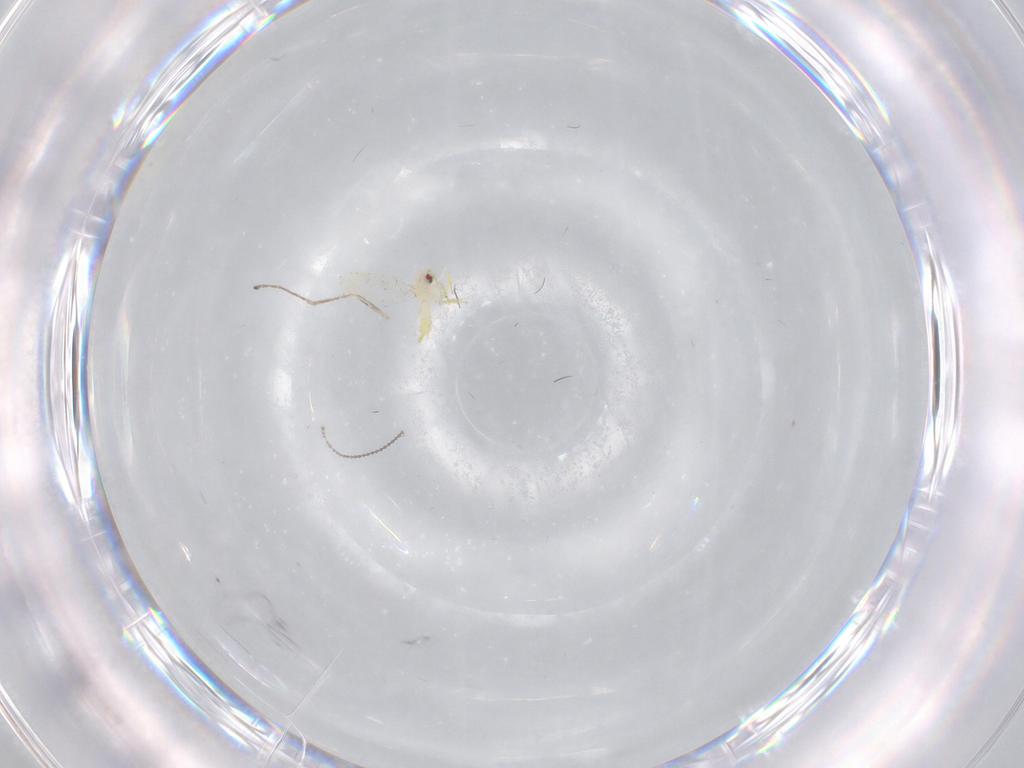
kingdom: Animalia
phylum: Arthropoda
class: Insecta
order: Hemiptera
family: Aleyrodidae
